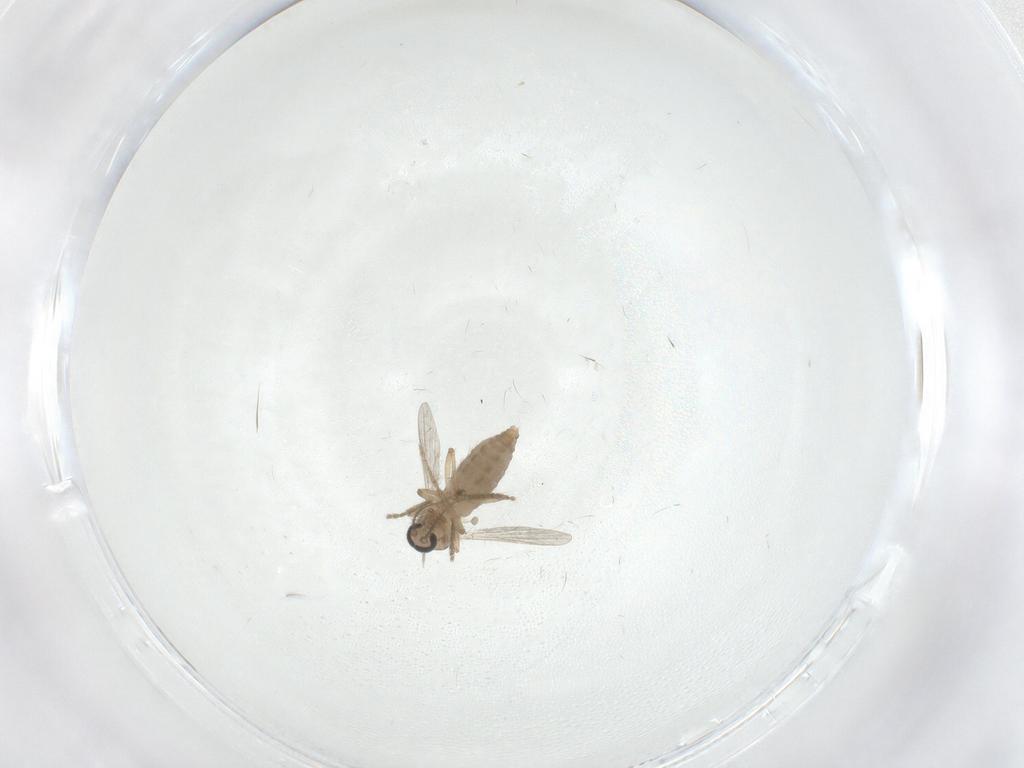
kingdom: Animalia
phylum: Arthropoda
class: Insecta
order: Diptera
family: Ceratopogonidae
